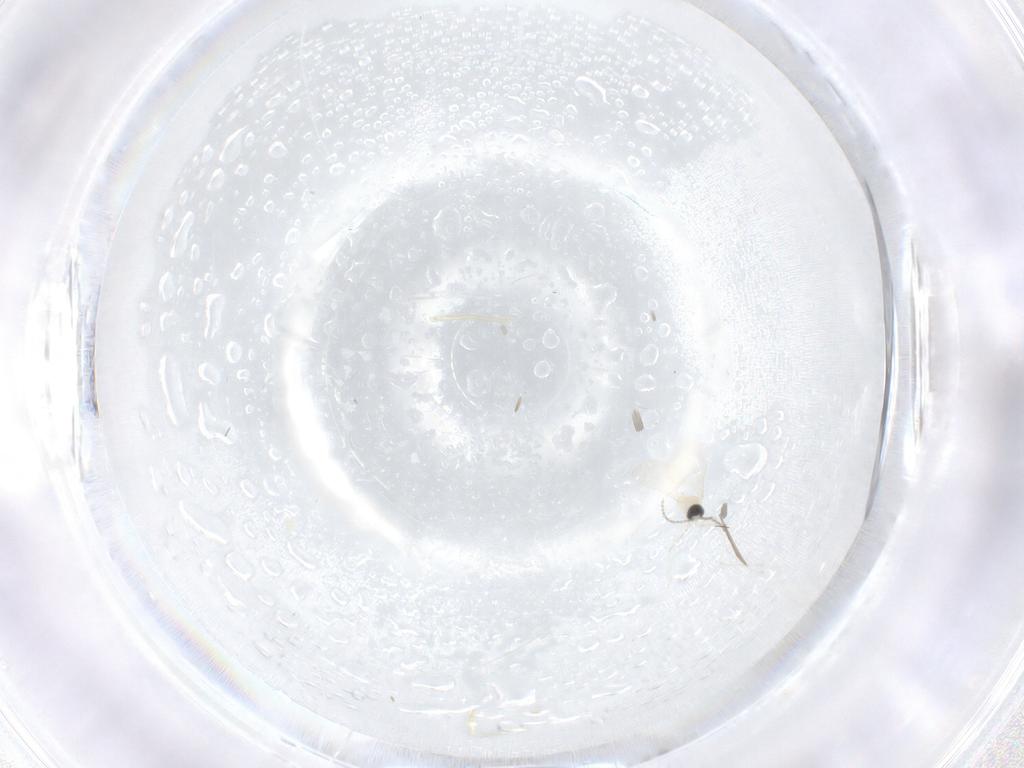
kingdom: Animalia
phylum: Arthropoda
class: Insecta
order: Diptera
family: Cecidomyiidae
